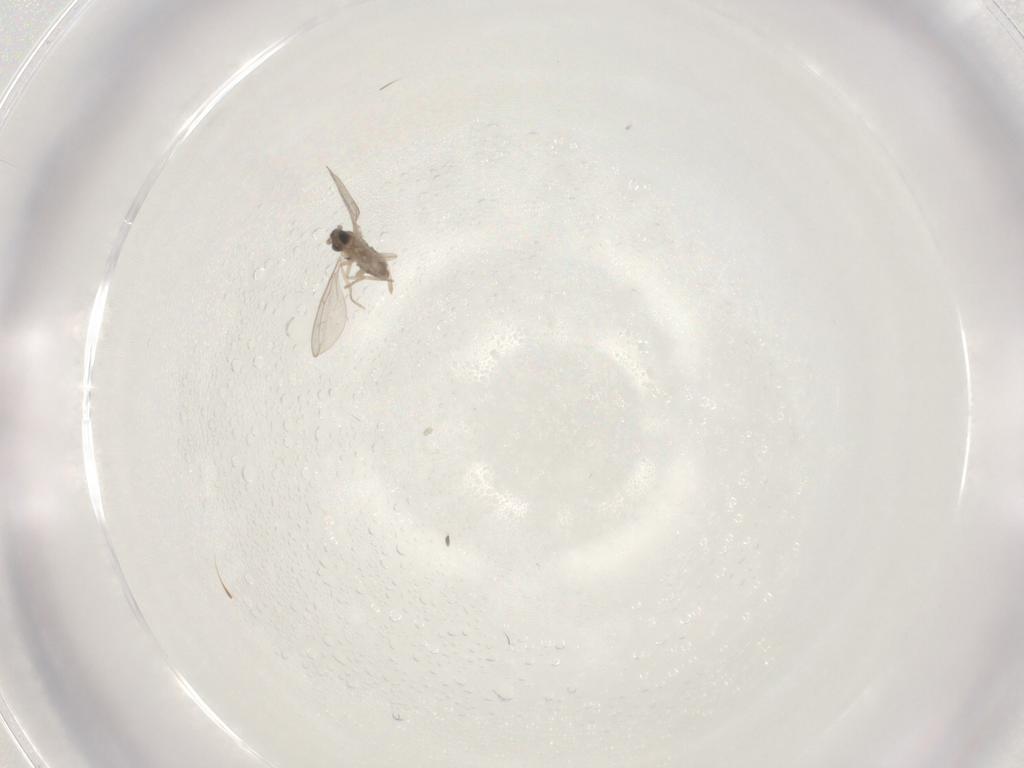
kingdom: Animalia
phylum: Arthropoda
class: Insecta
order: Diptera
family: Cecidomyiidae
